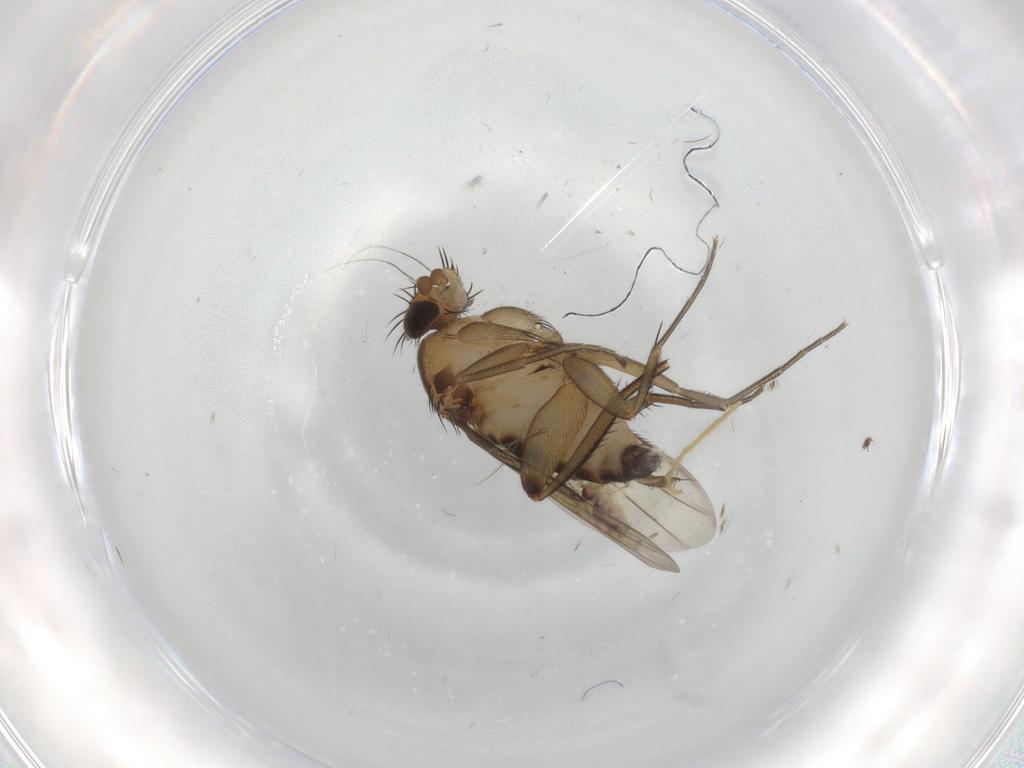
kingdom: Animalia
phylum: Arthropoda
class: Insecta
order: Diptera
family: Phoridae
